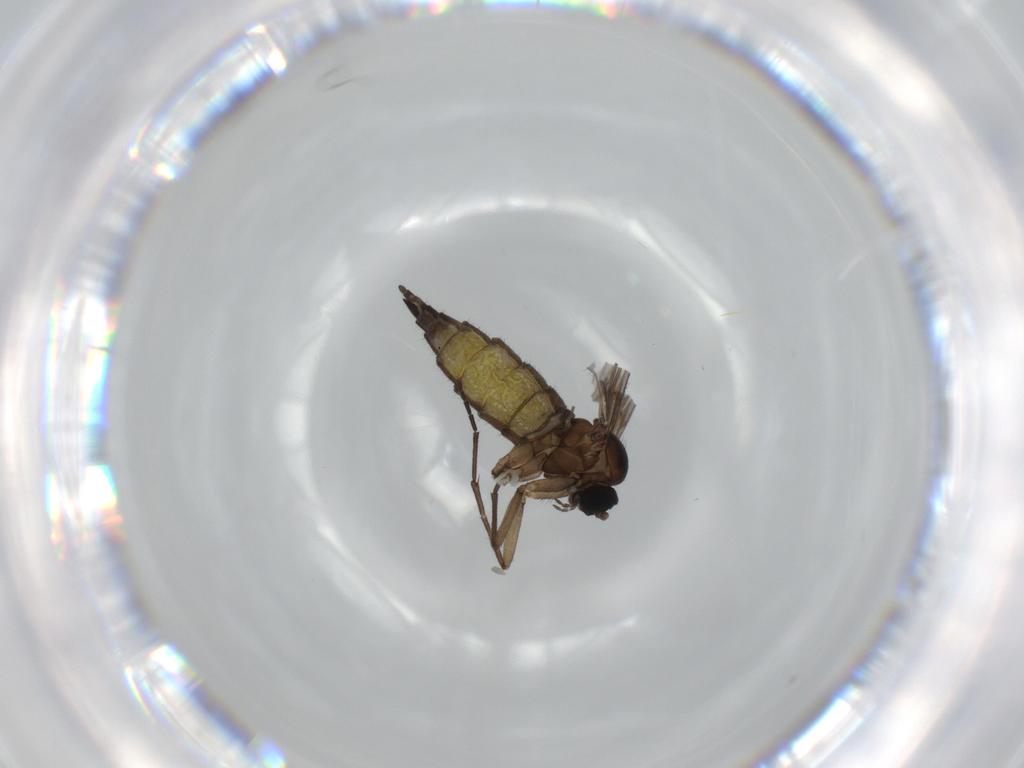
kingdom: Animalia
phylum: Arthropoda
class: Insecta
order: Diptera
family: Sciaridae
